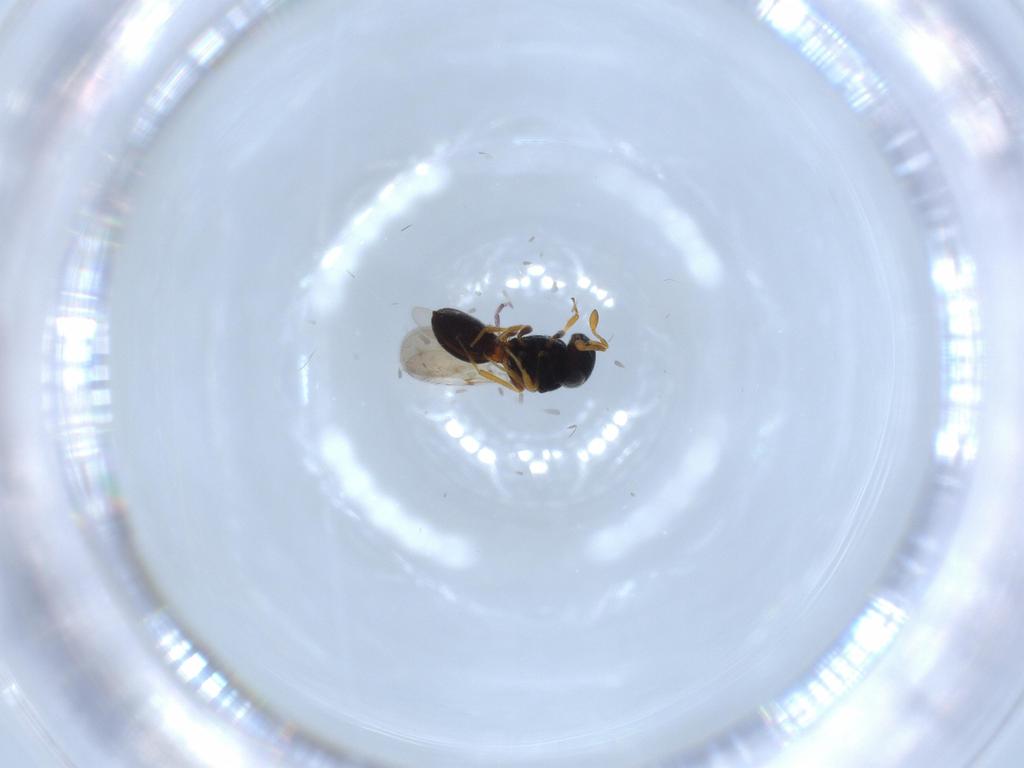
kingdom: Animalia
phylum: Arthropoda
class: Insecta
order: Hymenoptera
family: Scelionidae
